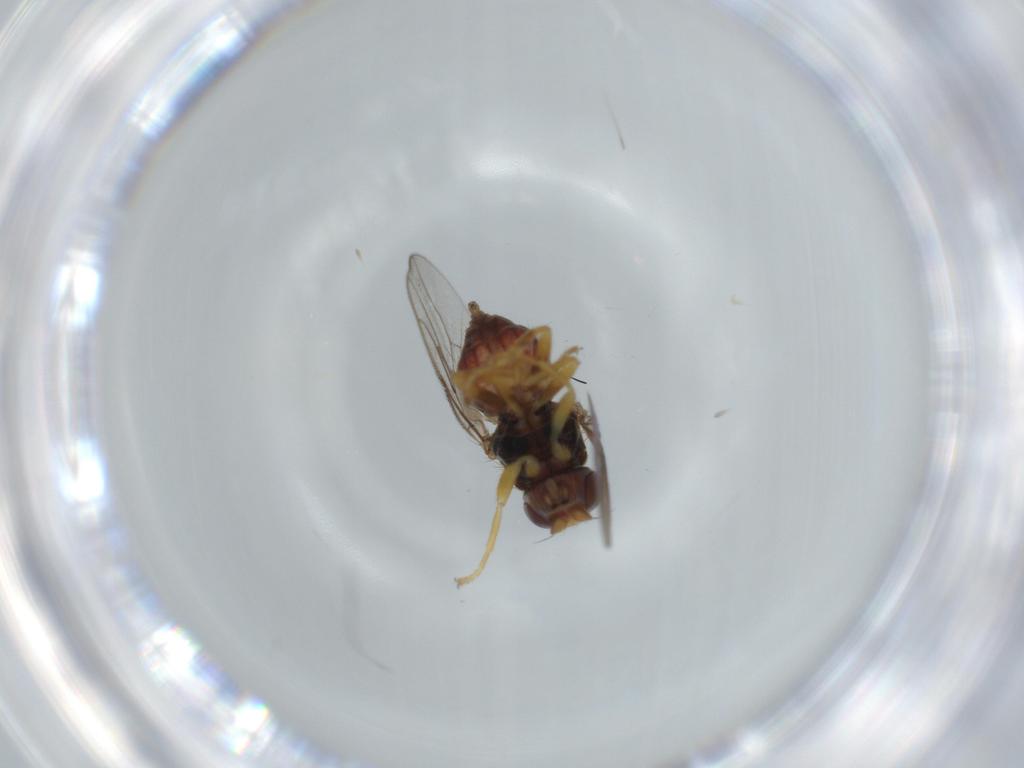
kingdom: Animalia
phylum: Arthropoda
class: Insecta
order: Diptera
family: Chloropidae
